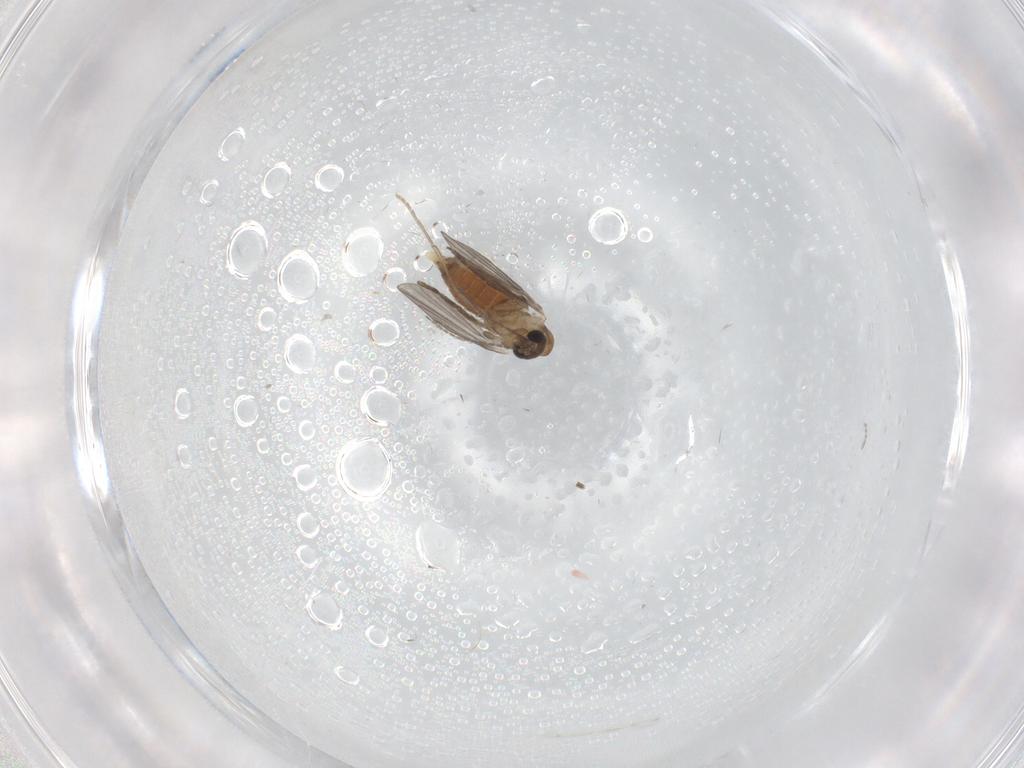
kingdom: Animalia
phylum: Arthropoda
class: Insecta
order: Diptera
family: Chironomidae
